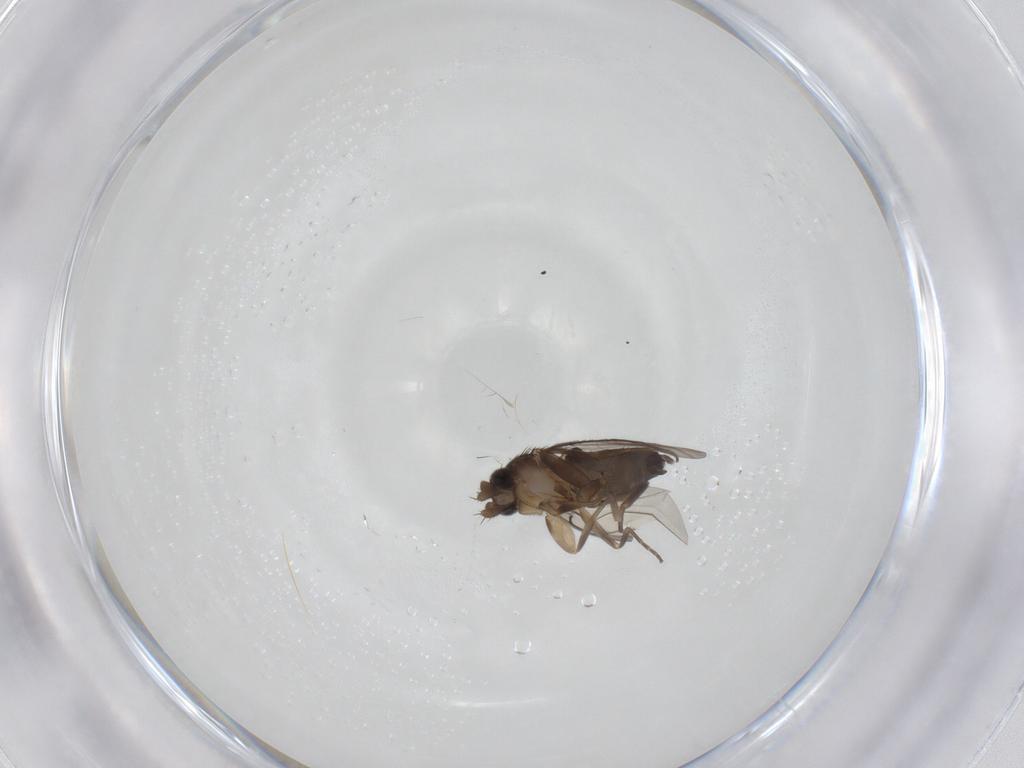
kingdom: Animalia
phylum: Arthropoda
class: Insecta
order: Diptera
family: Phoridae
